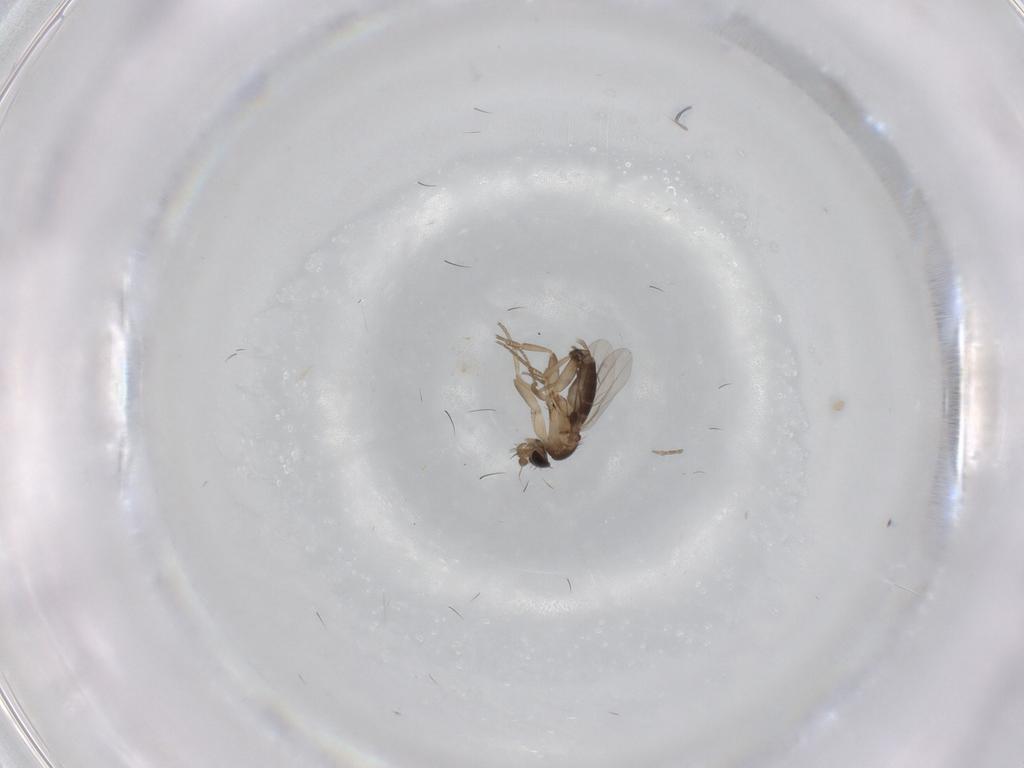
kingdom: Animalia
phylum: Arthropoda
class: Insecta
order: Diptera
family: Phoridae
